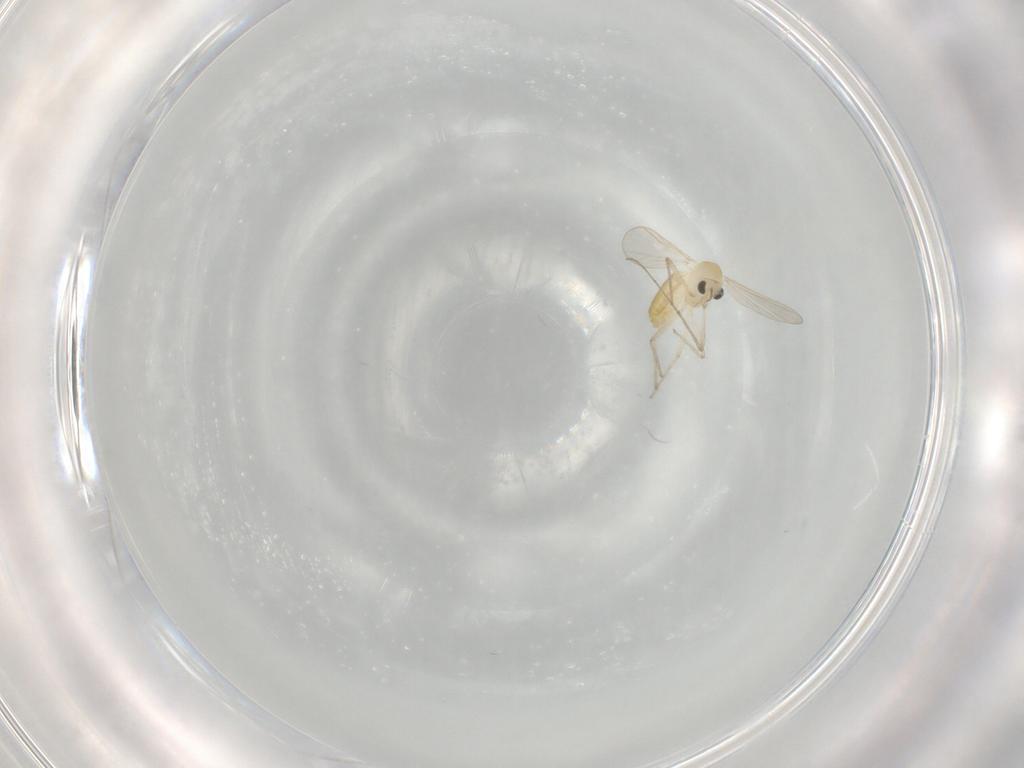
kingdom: Animalia
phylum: Arthropoda
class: Insecta
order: Diptera
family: Chironomidae
